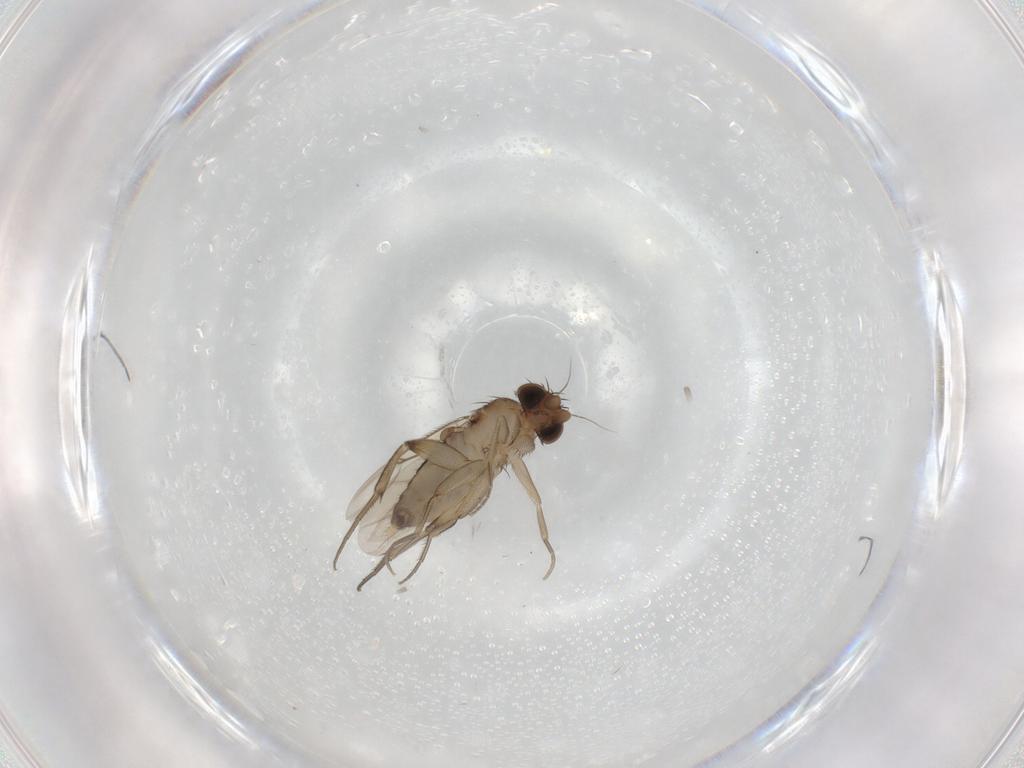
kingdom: Animalia
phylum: Arthropoda
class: Insecta
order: Diptera
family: Phoridae
